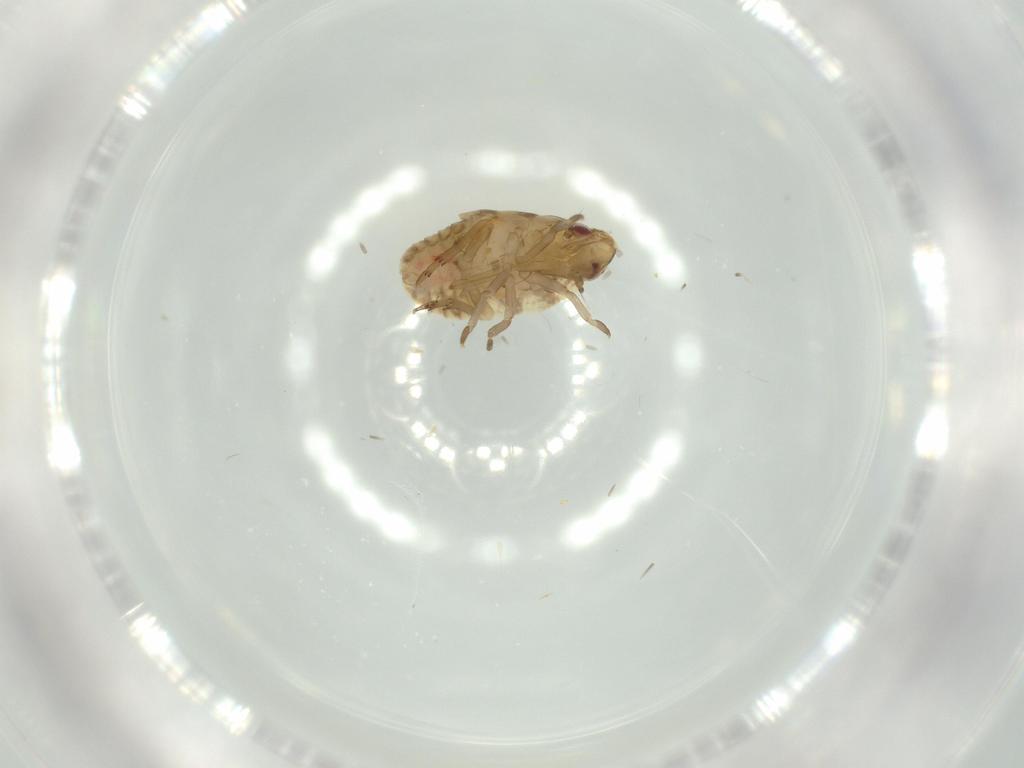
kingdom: Animalia
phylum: Arthropoda
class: Insecta
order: Hemiptera
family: Flatidae
